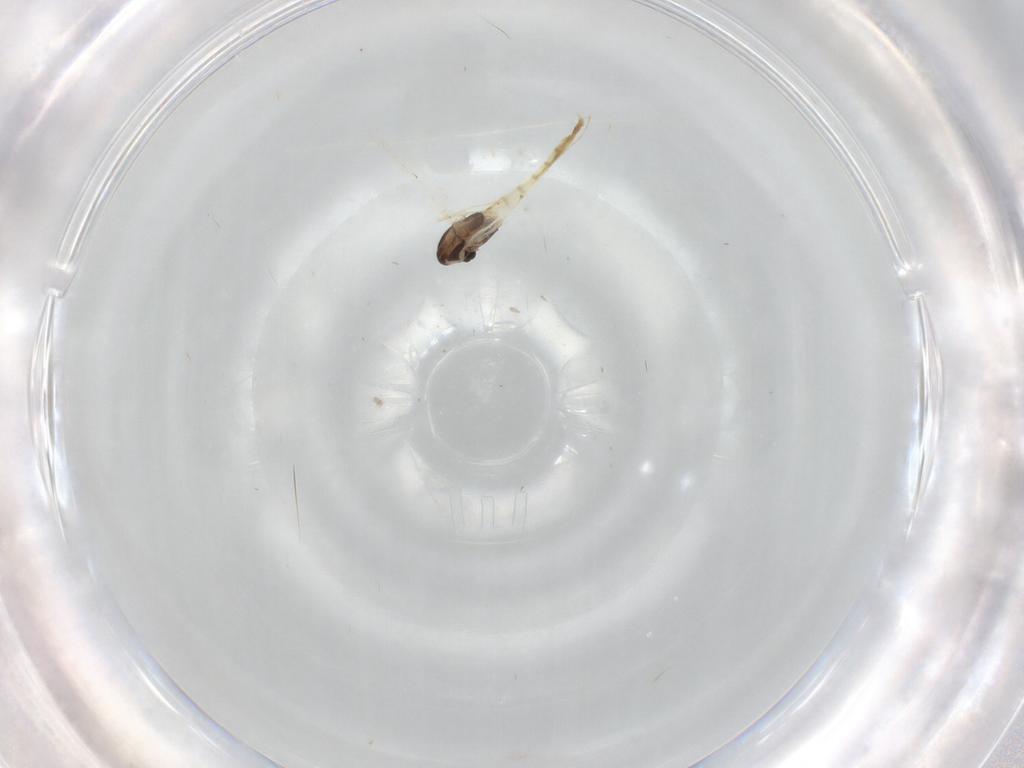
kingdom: Animalia
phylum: Arthropoda
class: Insecta
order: Diptera
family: Chironomidae
